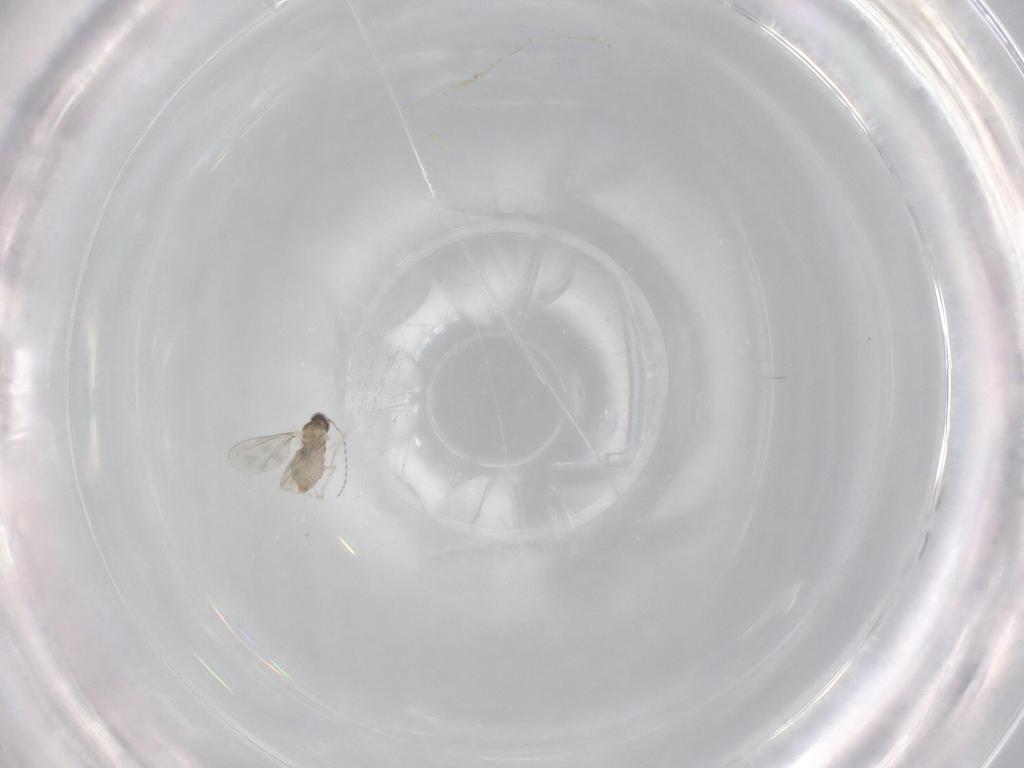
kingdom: Animalia
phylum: Arthropoda
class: Insecta
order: Diptera
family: Cecidomyiidae
